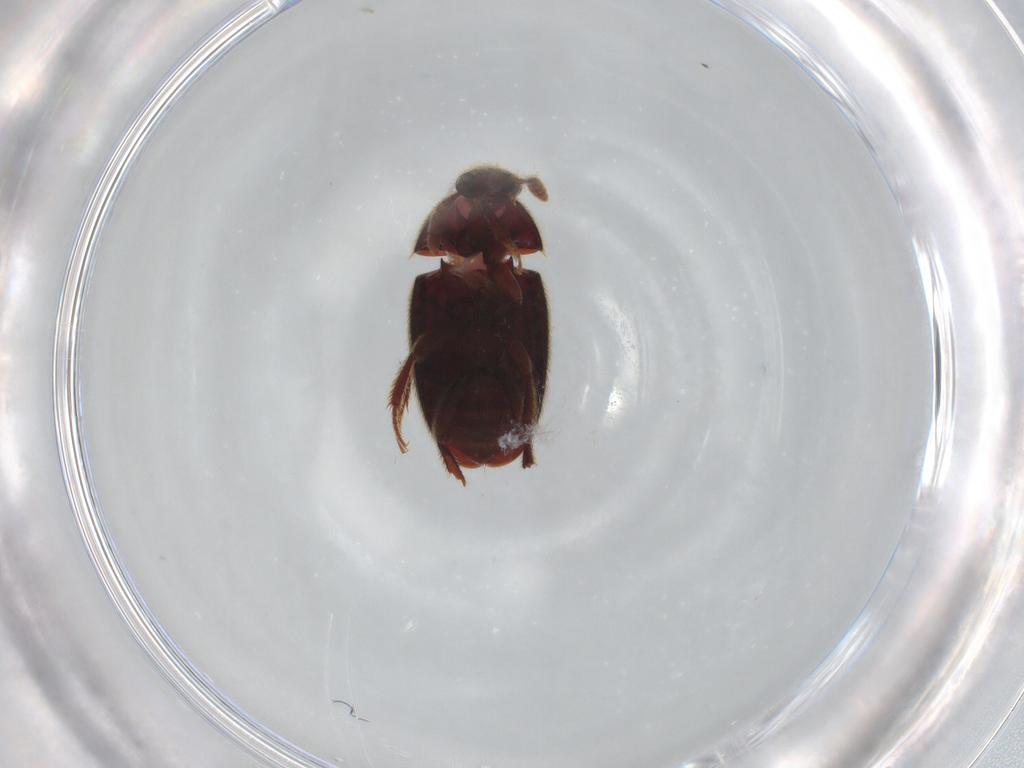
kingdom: Animalia
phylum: Arthropoda
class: Insecta
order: Coleoptera
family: Leiodidae
